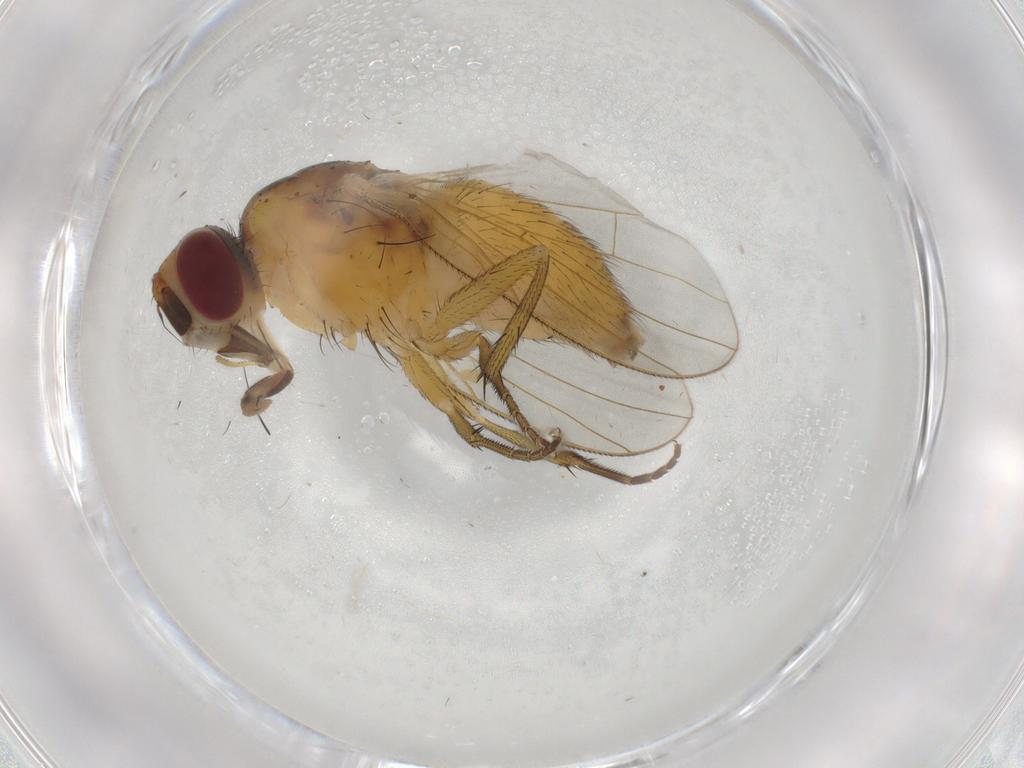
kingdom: Animalia
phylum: Arthropoda
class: Insecta
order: Diptera
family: Muscidae
